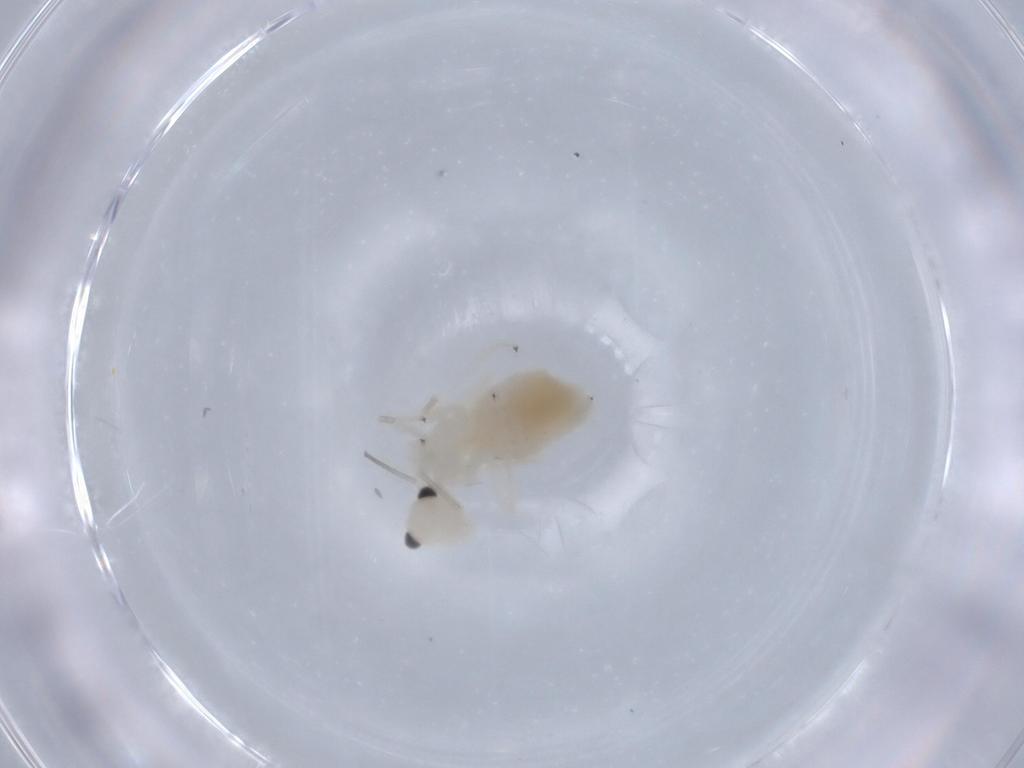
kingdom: Animalia
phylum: Arthropoda
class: Insecta
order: Psocodea
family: Caeciliusidae
